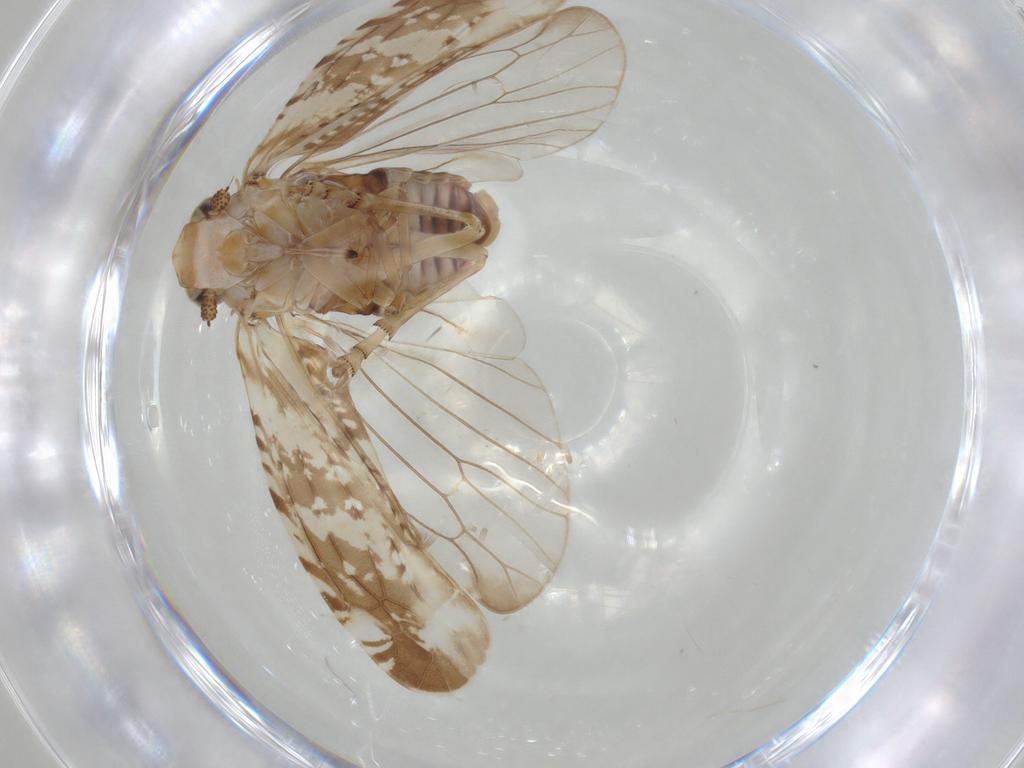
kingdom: Animalia
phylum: Arthropoda
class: Insecta
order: Hemiptera
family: Achilidae
